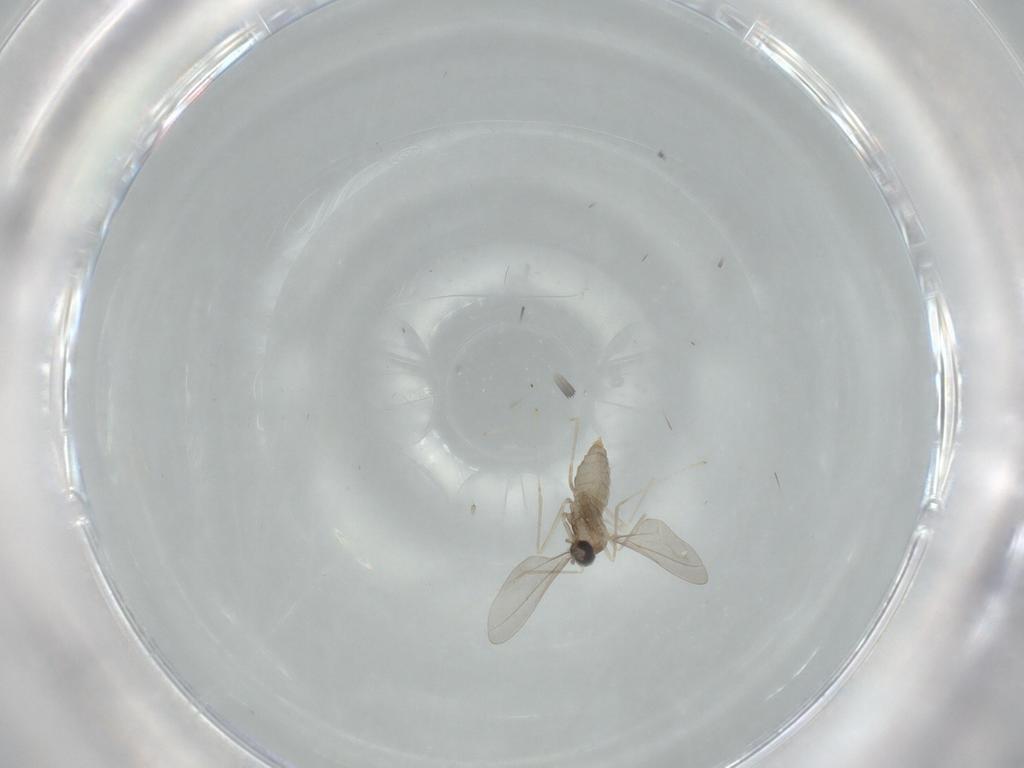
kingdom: Animalia
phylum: Arthropoda
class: Insecta
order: Diptera
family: Cecidomyiidae
